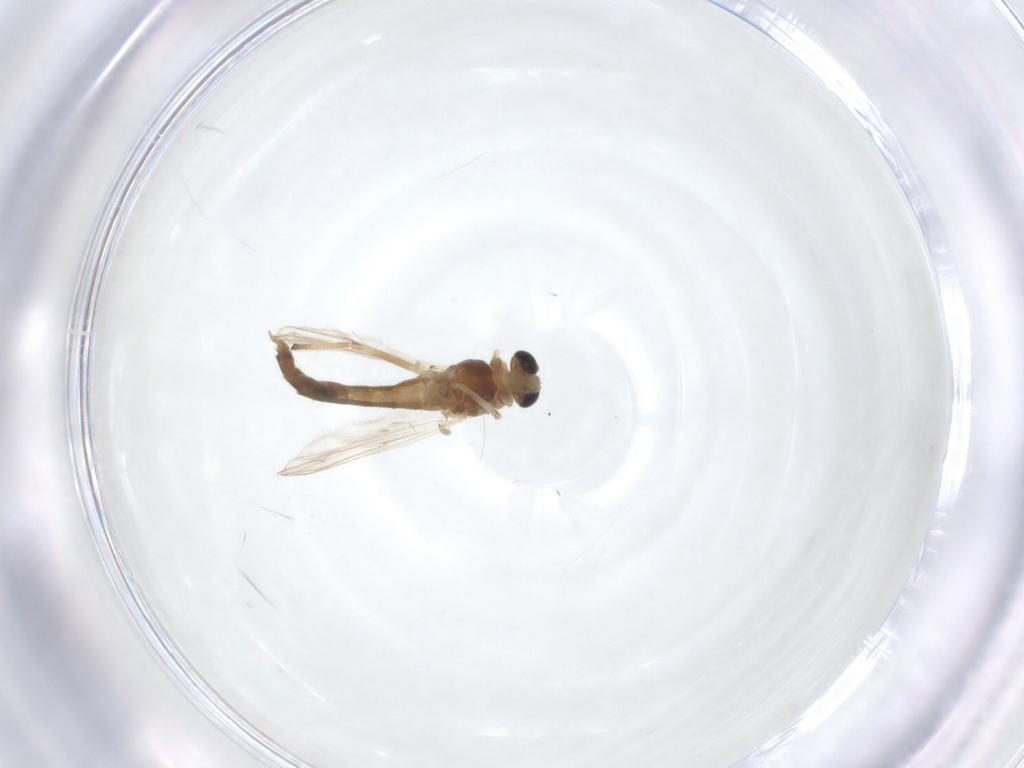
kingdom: Animalia
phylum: Arthropoda
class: Insecta
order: Diptera
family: Chironomidae
